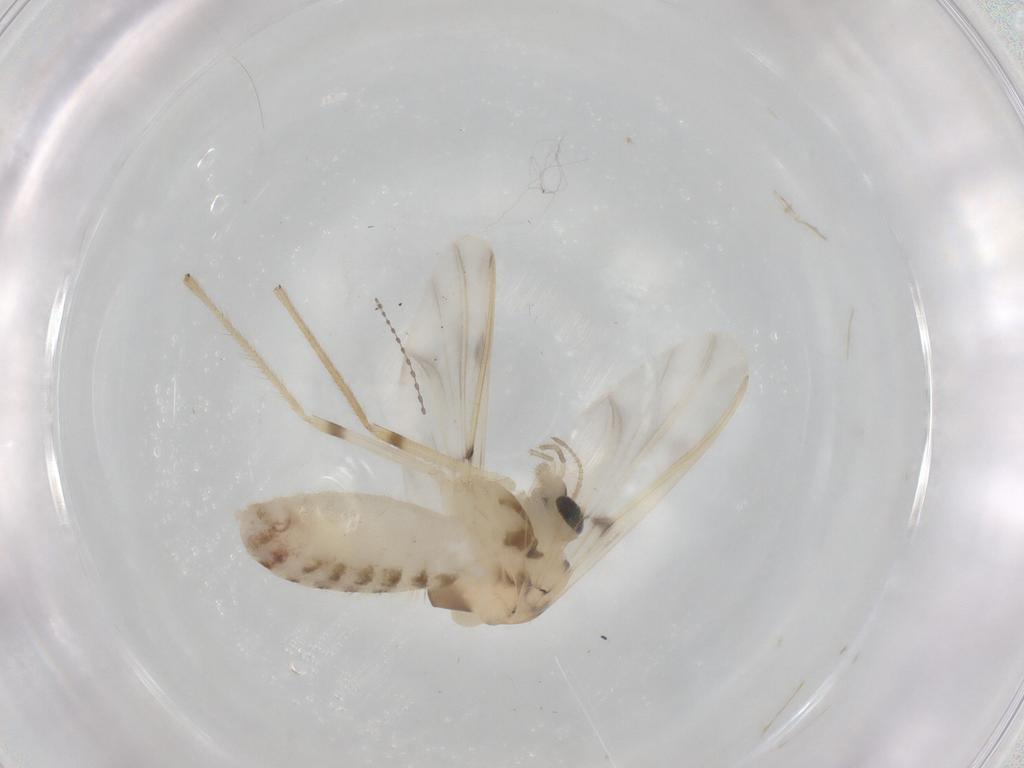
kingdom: Animalia
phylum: Arthropoda
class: Insecta
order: Diptera
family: Chironomidae
